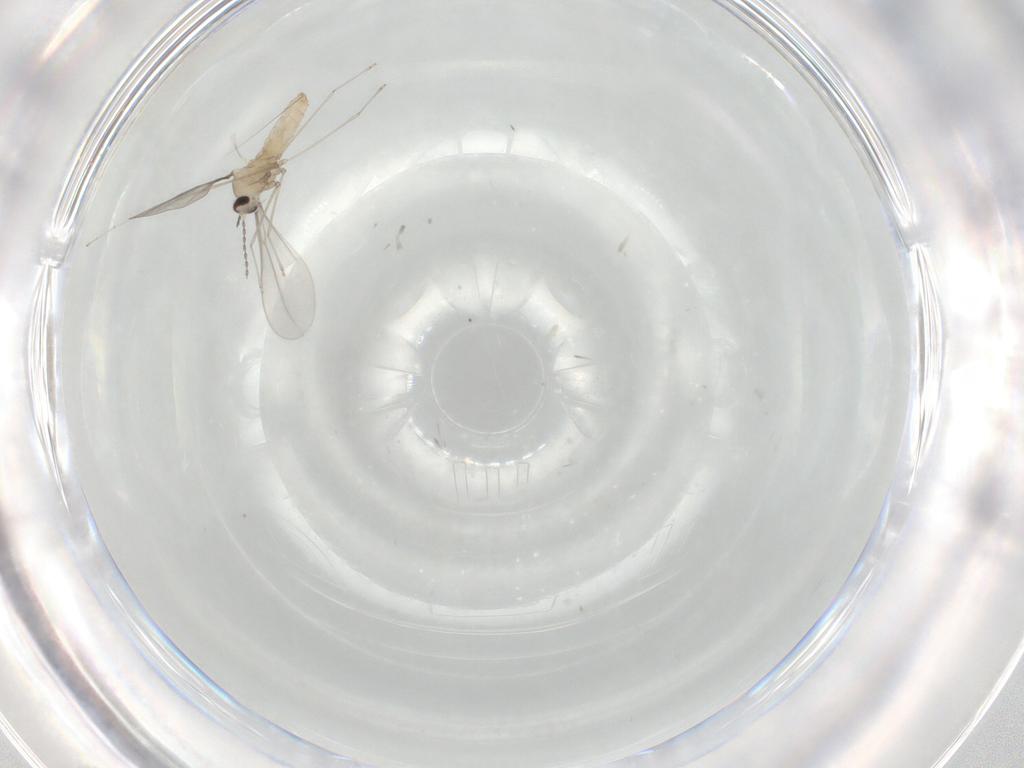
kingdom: Animalia
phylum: Arthropoda
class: Insecta
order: Diptera
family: Cecidomyiidae
